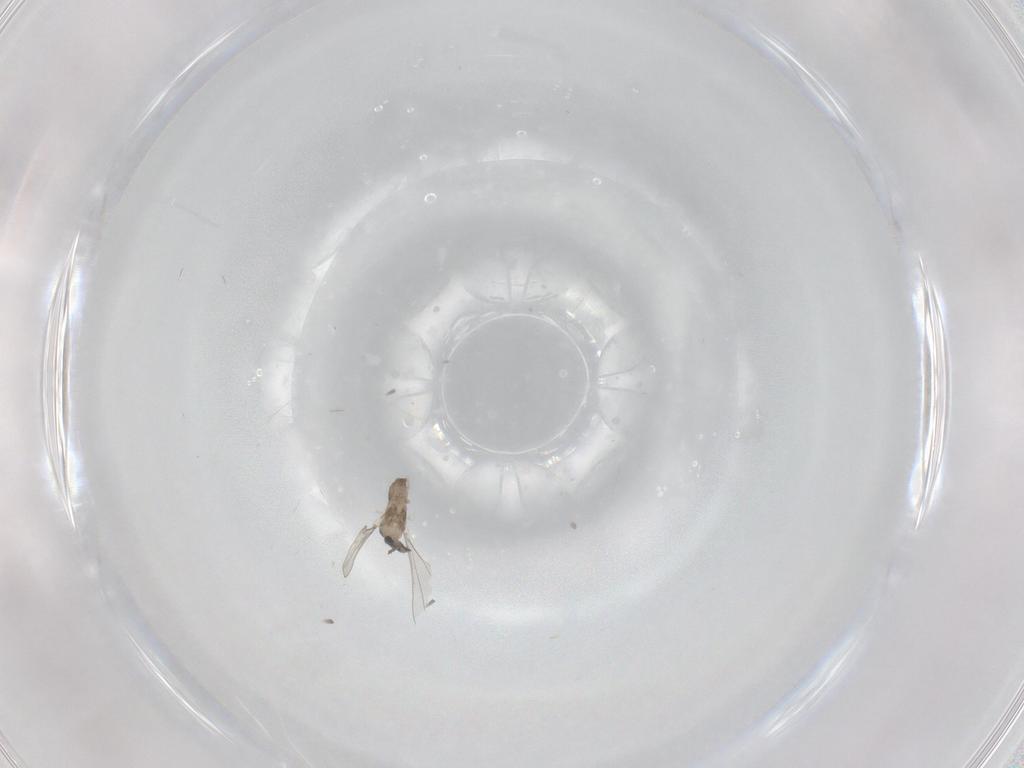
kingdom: Animalia
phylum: Arthropoda
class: Insecta
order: Diptera
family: Cecidomyiidae
